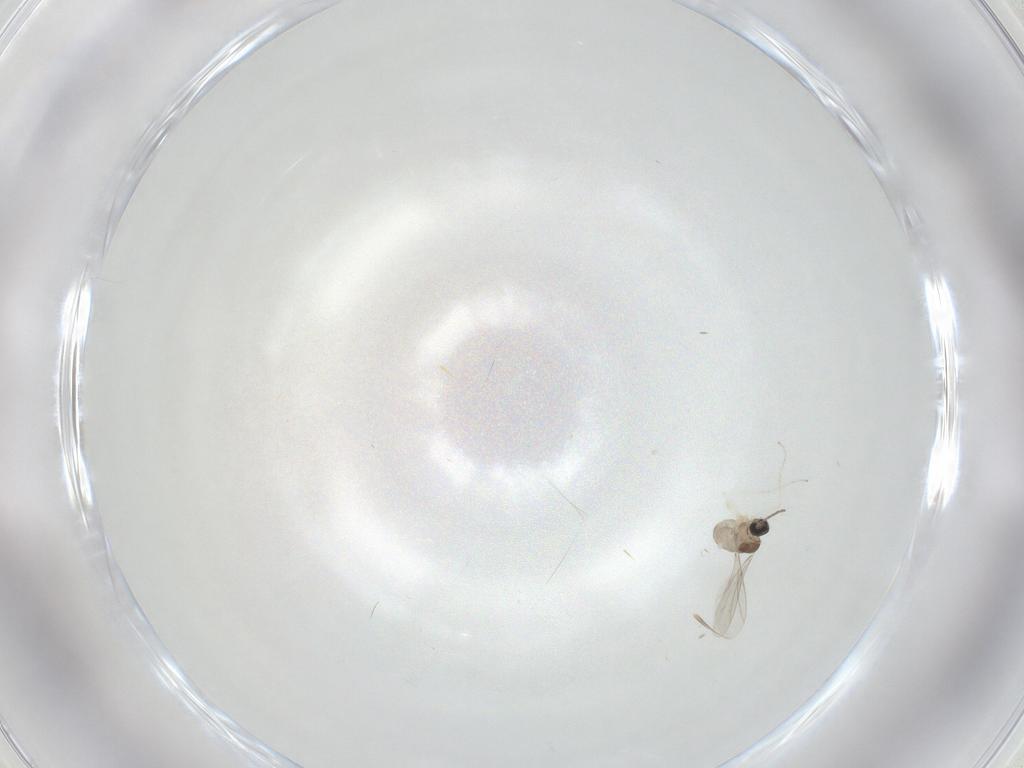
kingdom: Animalia
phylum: Arthropoda
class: Insecta
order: Diptera
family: Cecidomyiidae
